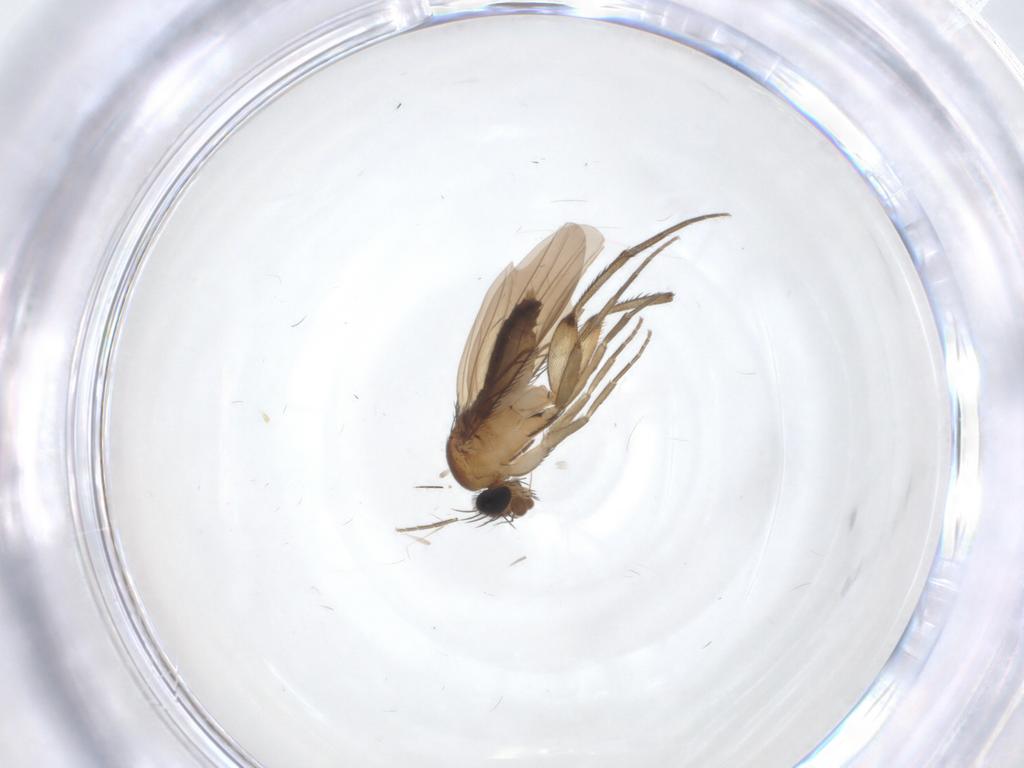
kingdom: Animalia
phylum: Arthropoda
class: Insecta
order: Diptera
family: Phoridae
